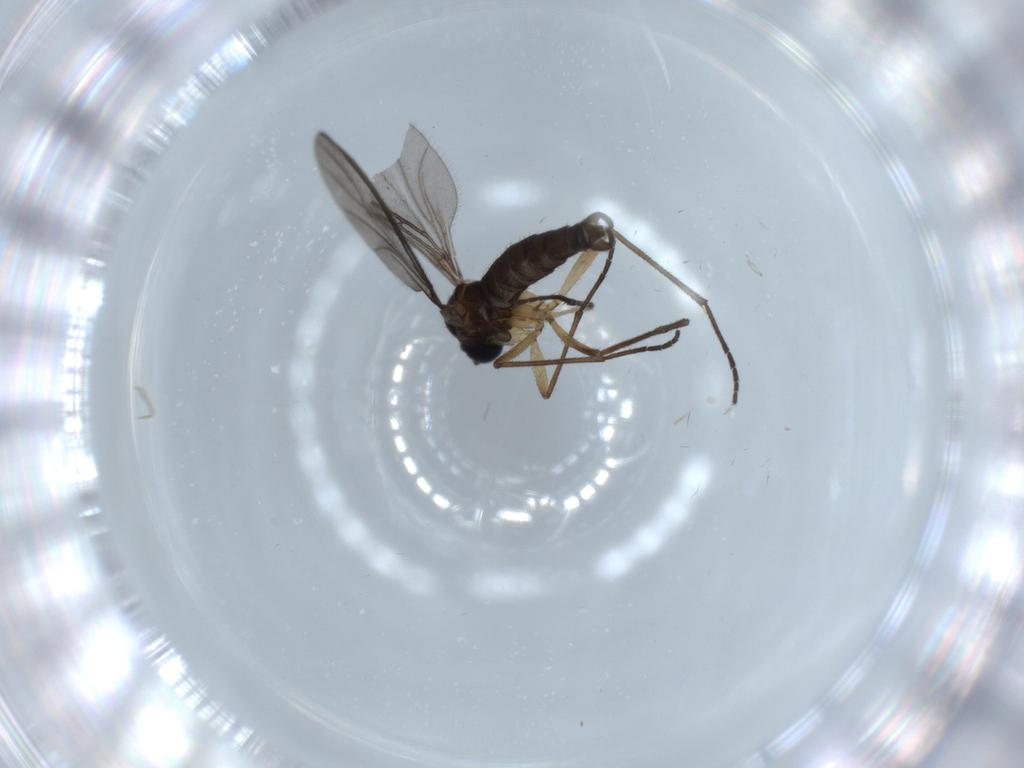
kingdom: Animalia
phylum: Arthropoda
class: Insecta
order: Diptera
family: Sciaridae
